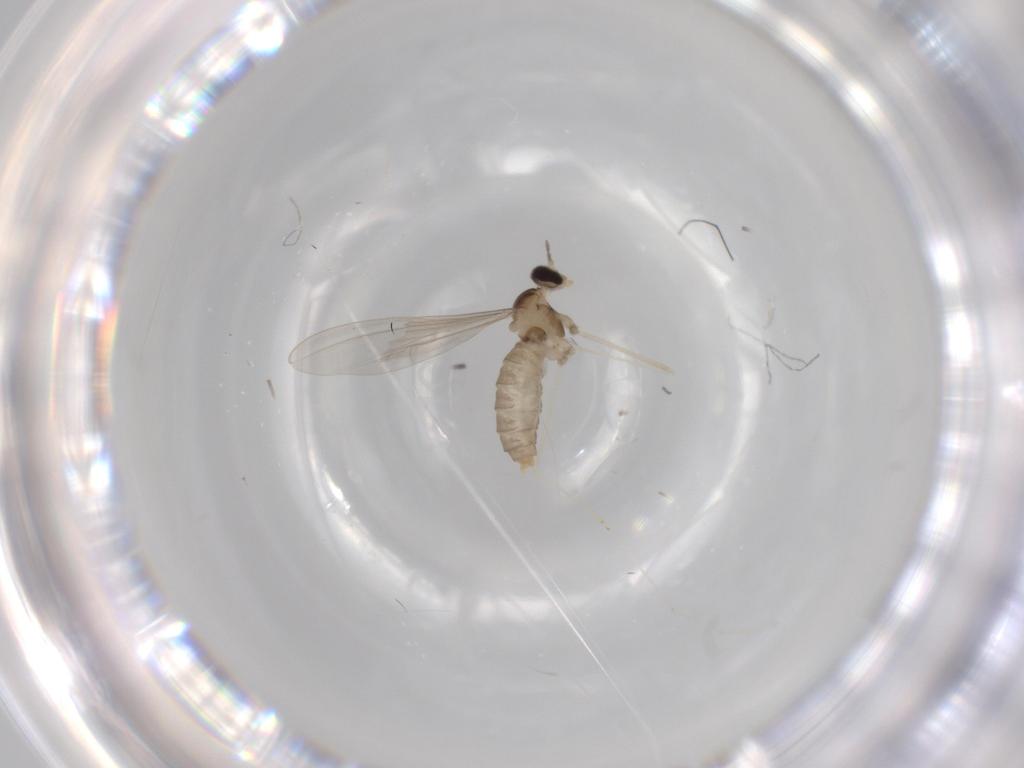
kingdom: Animalia
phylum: Arthropoda
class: Insecta
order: Diptera
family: Cecidomyiidae
